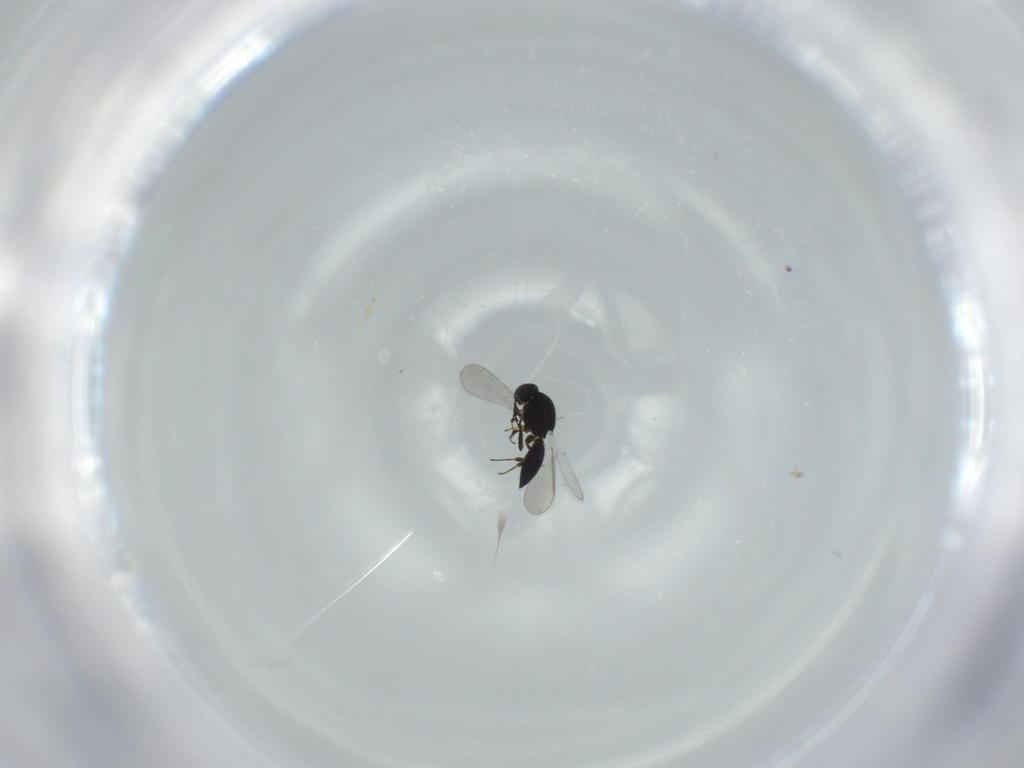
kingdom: Animalia
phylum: Arthropoda
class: Insecta
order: Hymenoptera
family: Platygastridae
